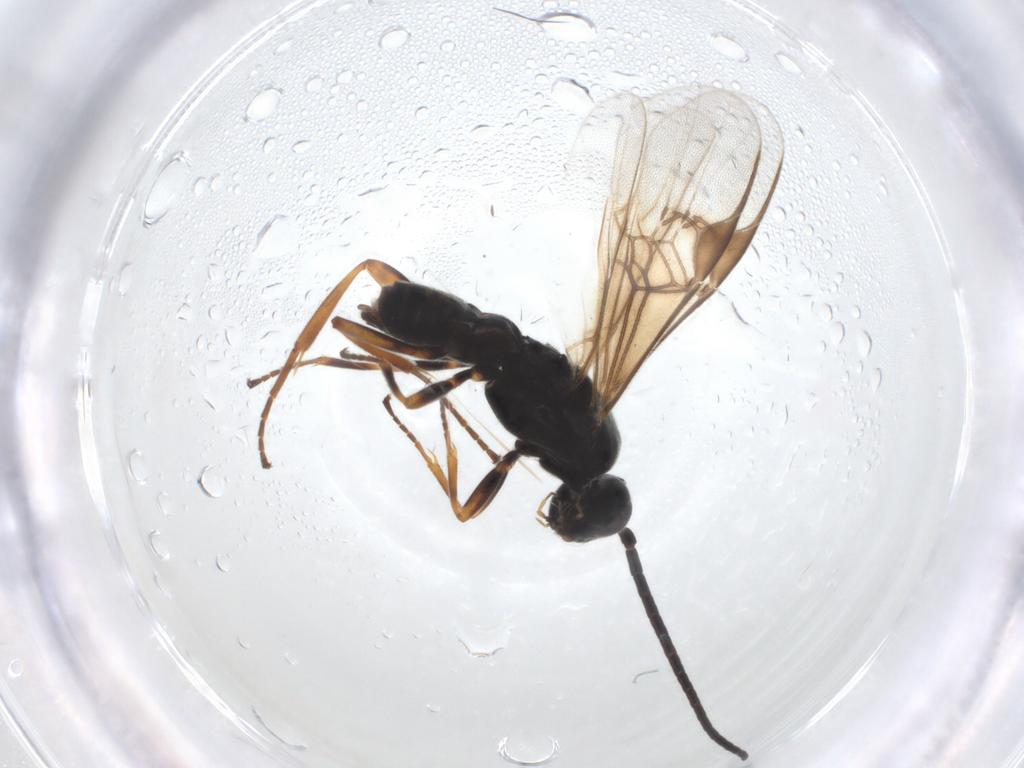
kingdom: Animalia
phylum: Arthropoda
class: Insecta
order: Hymenoptera
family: Braconidae
